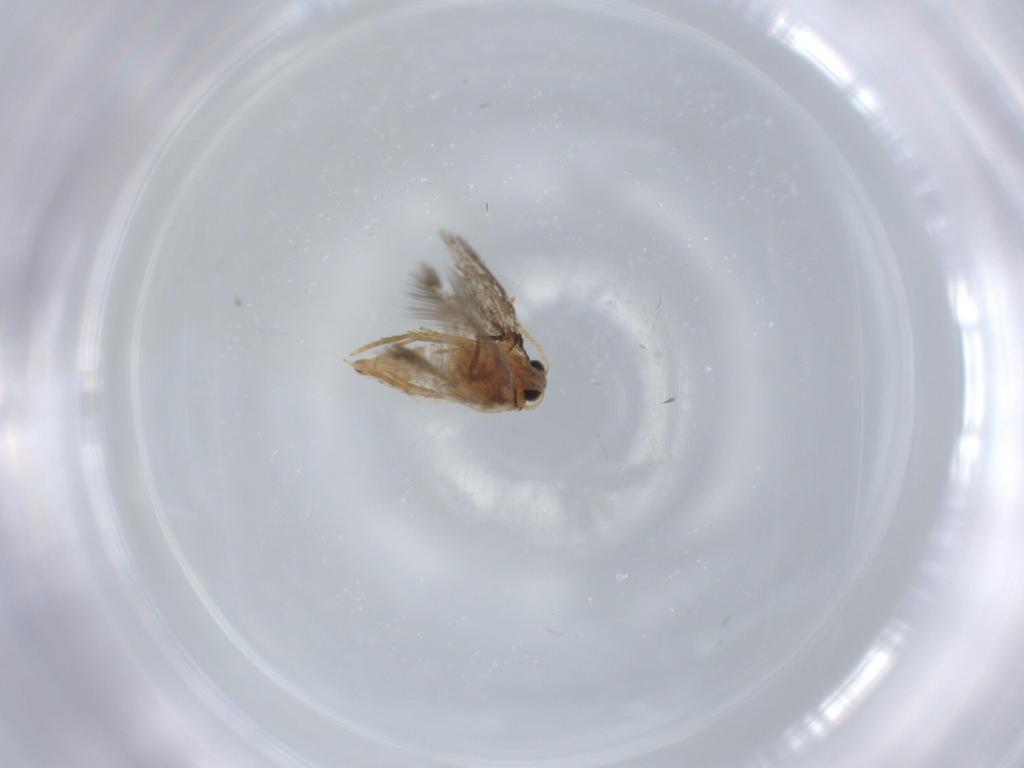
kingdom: Animalia
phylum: Arthropoda
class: Insecta
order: Lepidoptera
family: Copromorphidae
